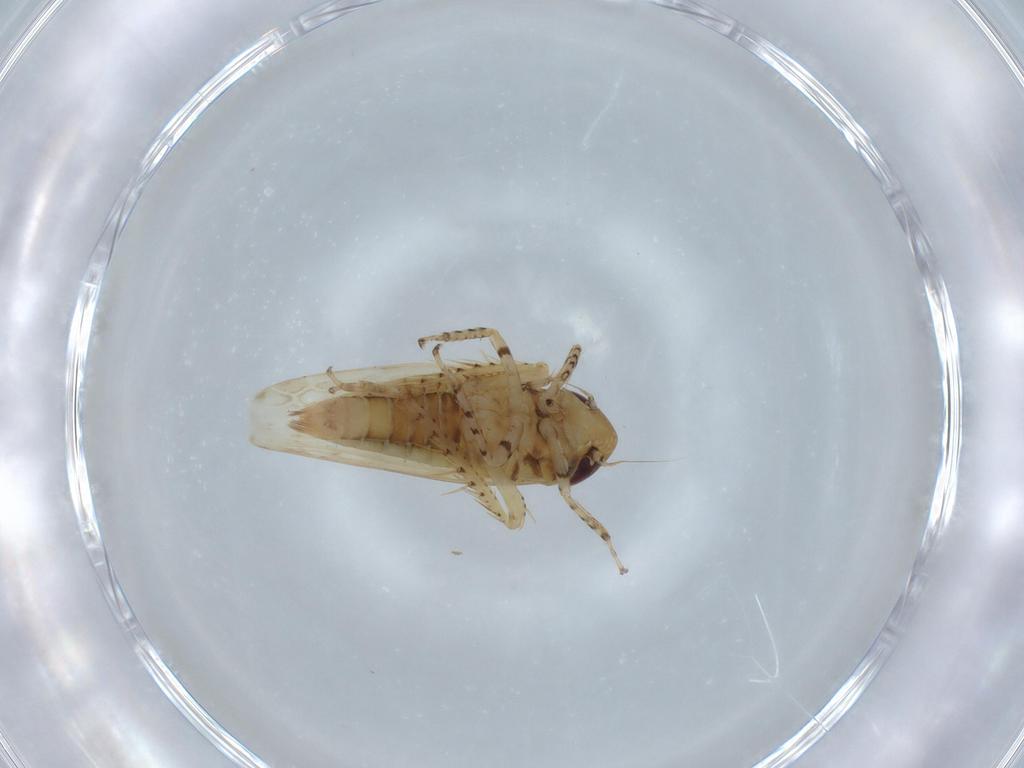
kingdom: Animalia
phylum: Arthropoda
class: Insecta
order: Hemiptera
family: Cicadellidae
